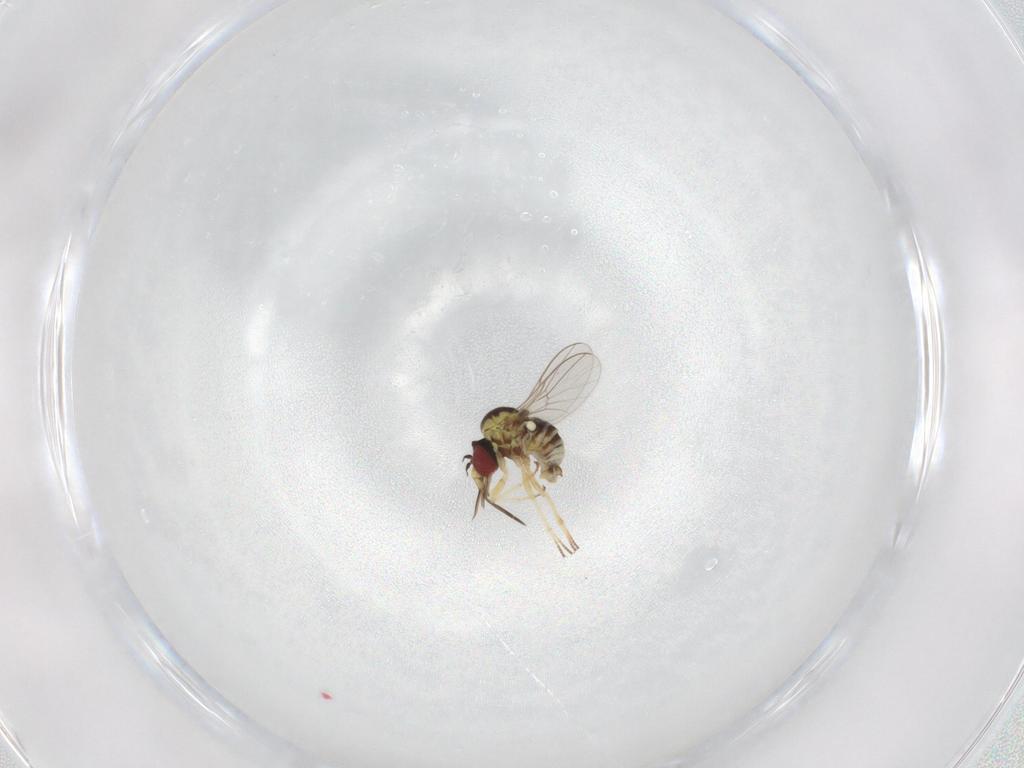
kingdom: Animalia
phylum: Arthropoda
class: Insecta
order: Diptera
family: Bombyliidae
